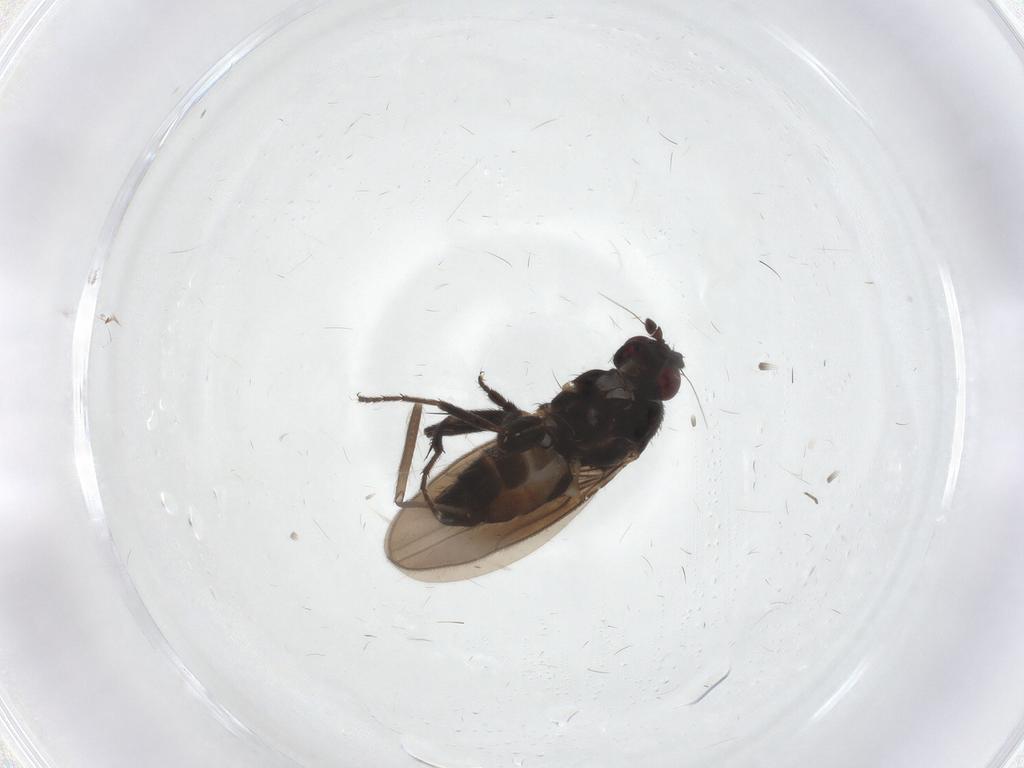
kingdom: Animalia
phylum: Arthropoda
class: Insecta
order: Diptera
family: Sphaeroceridae
